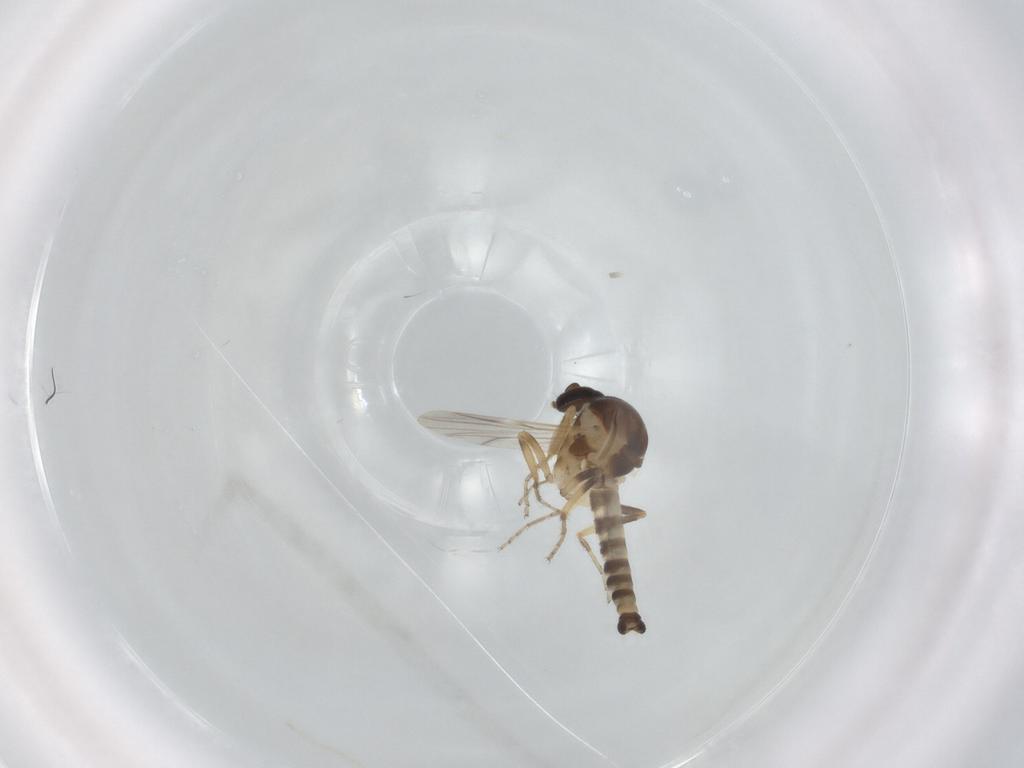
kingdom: Animalia
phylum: Arthropoda
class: Insecta
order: Diptera
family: Ceratopogonidae
